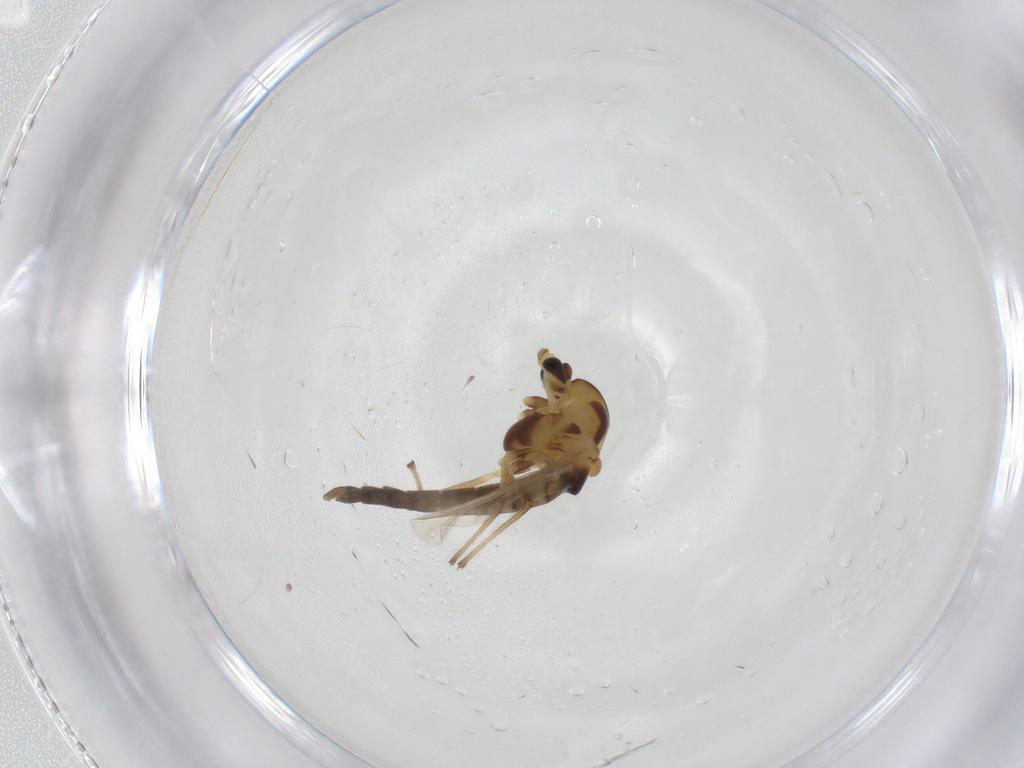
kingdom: Animalia
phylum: Arthropoda
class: Insecta
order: Diptera
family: Chironomidae
